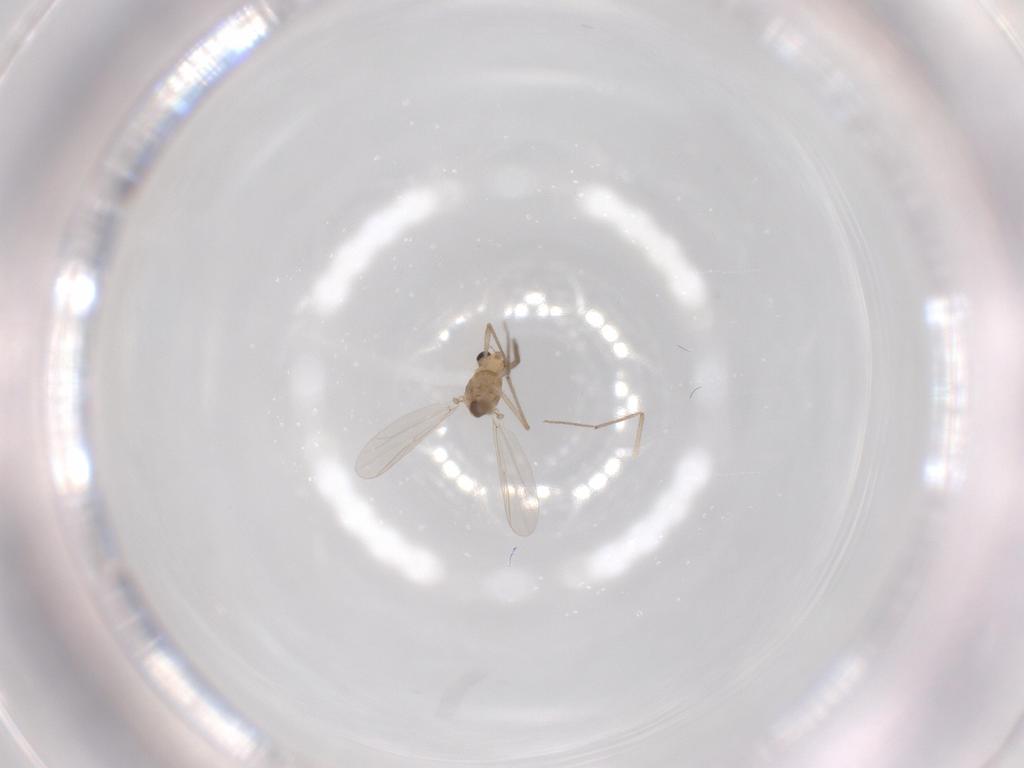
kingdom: Animalia
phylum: Arthropoda
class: Insecta
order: Diptera
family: Chironomidae
